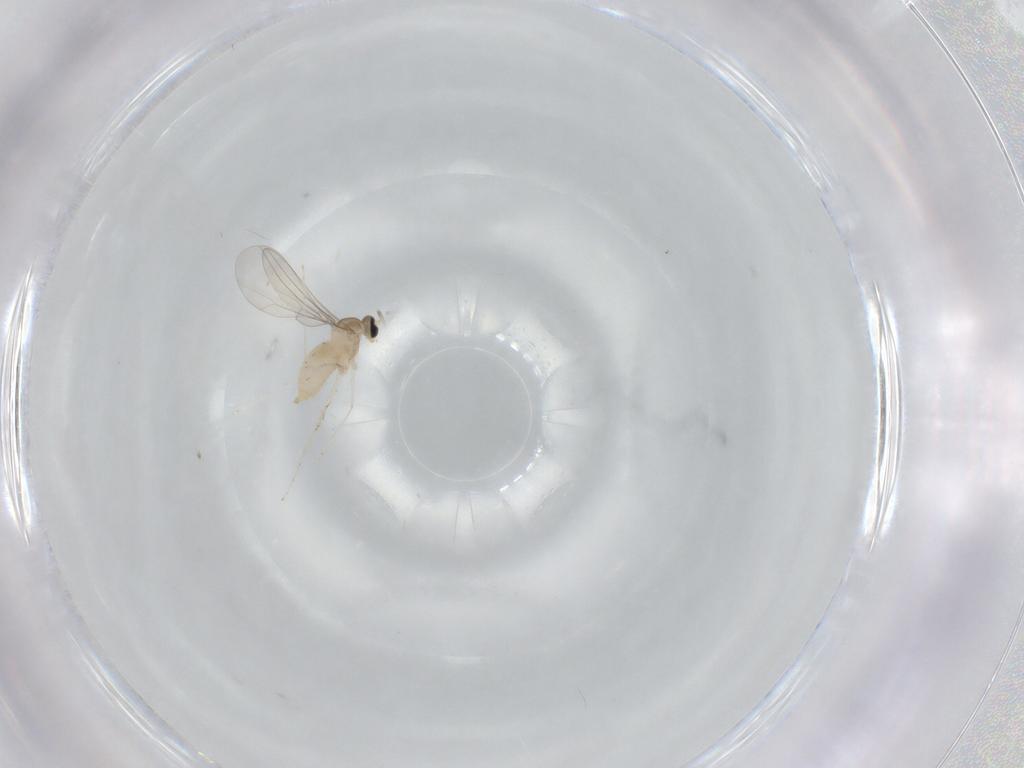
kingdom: Animalia
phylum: Arthropoda
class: Insecta
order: Diptera
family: Cecidomyiidae
